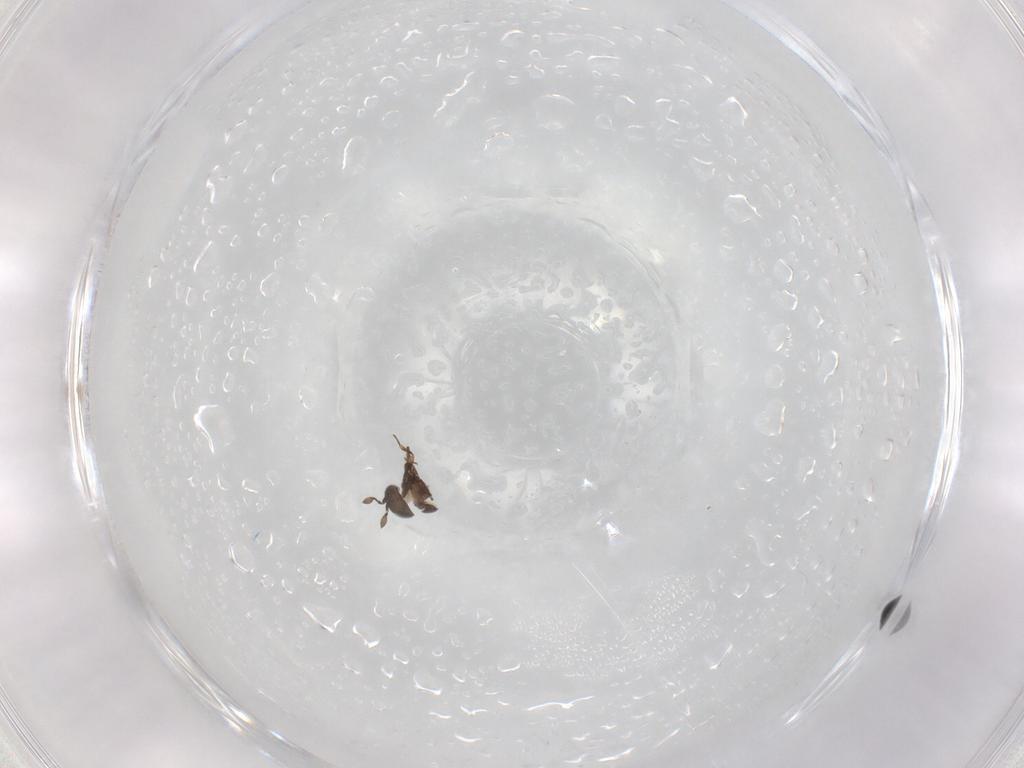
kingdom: Animalia
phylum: Arthropoda
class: Insecta
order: Hymenoptera
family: Scelionidae
